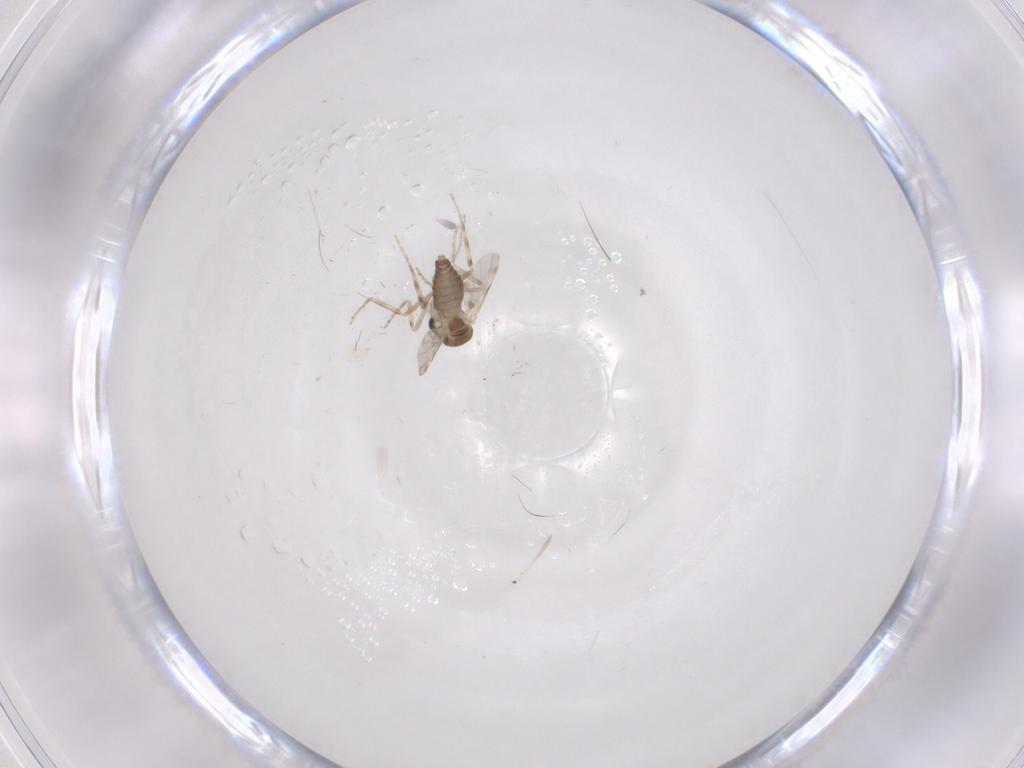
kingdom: Animalia
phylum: Arthropoda
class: Insecta
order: Diptera
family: Ceratopogonidae
